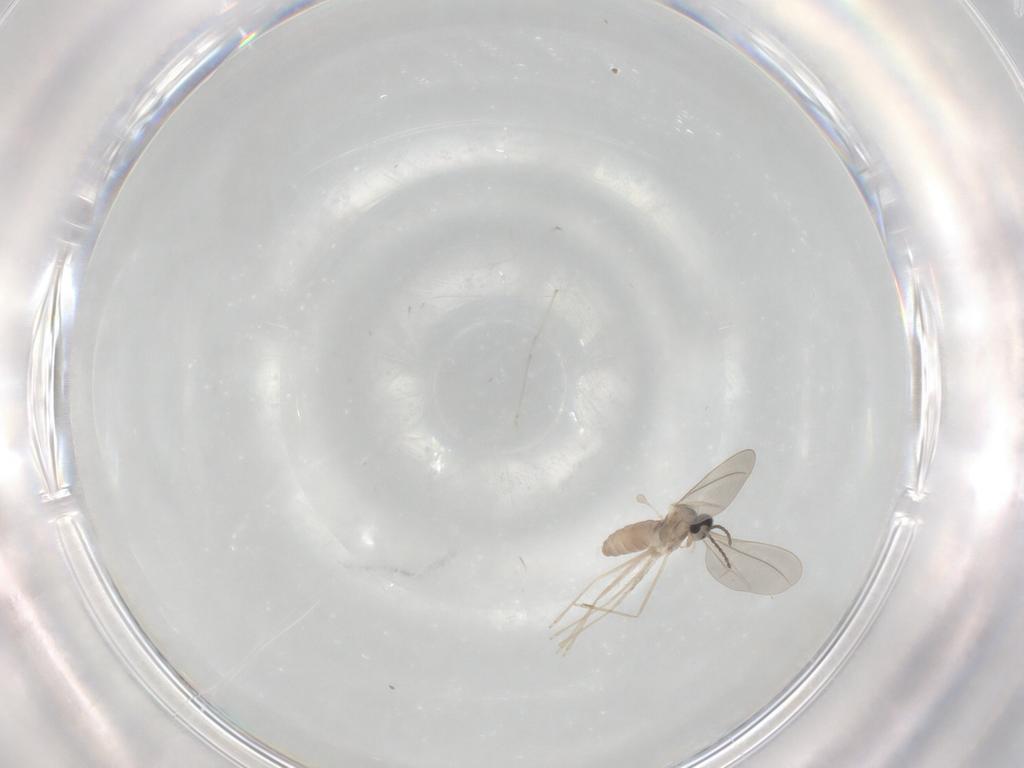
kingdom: Animalia
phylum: Arthropoda
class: Insecta
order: Diptera
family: Cecidomyiidae
